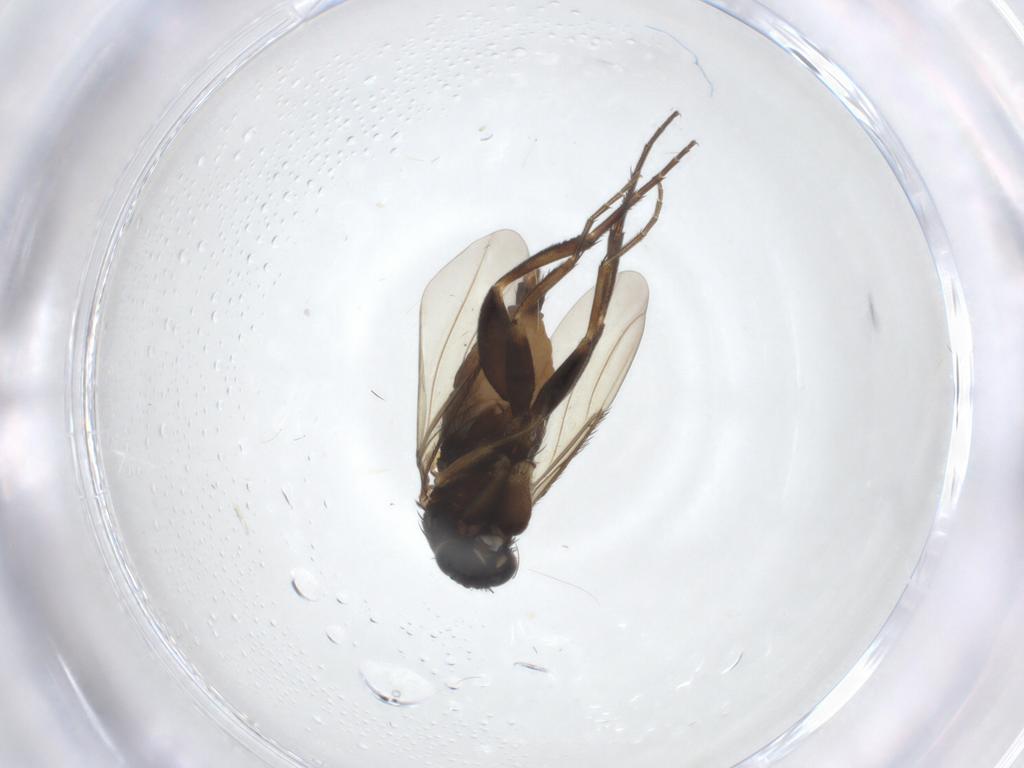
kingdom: Animalia
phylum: Arthropoda
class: Insecta
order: Diptera
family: Phoridae
